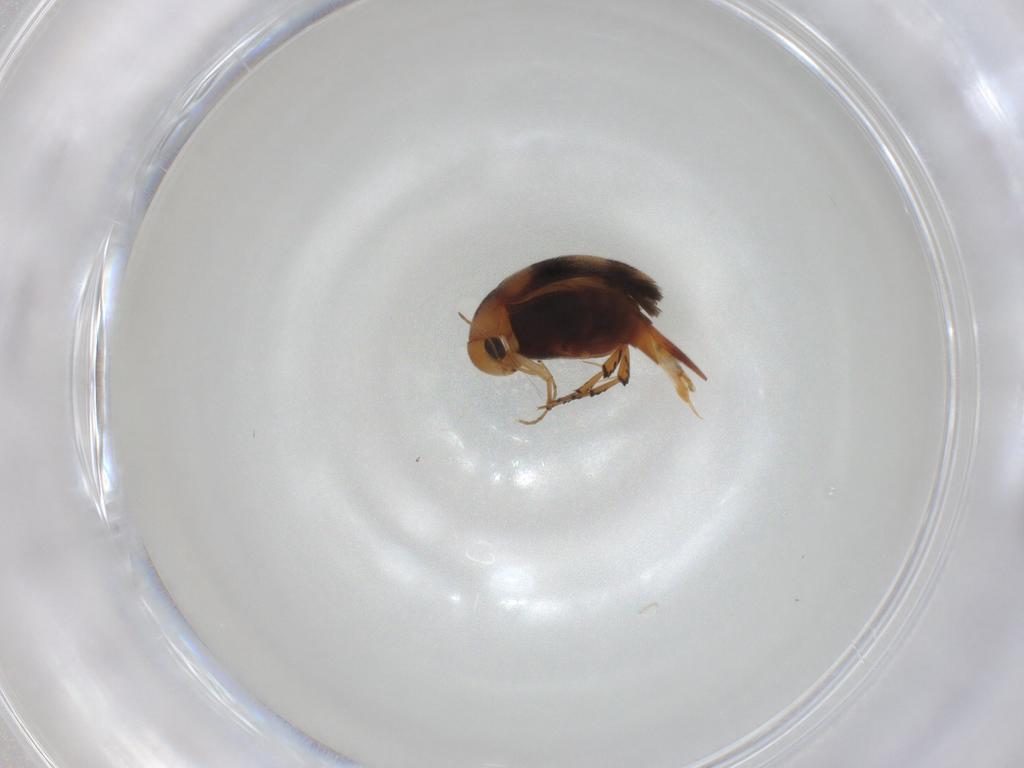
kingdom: Animalia
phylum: Arthropoda
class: Insecta
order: Coleoptera
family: Mordellidae
